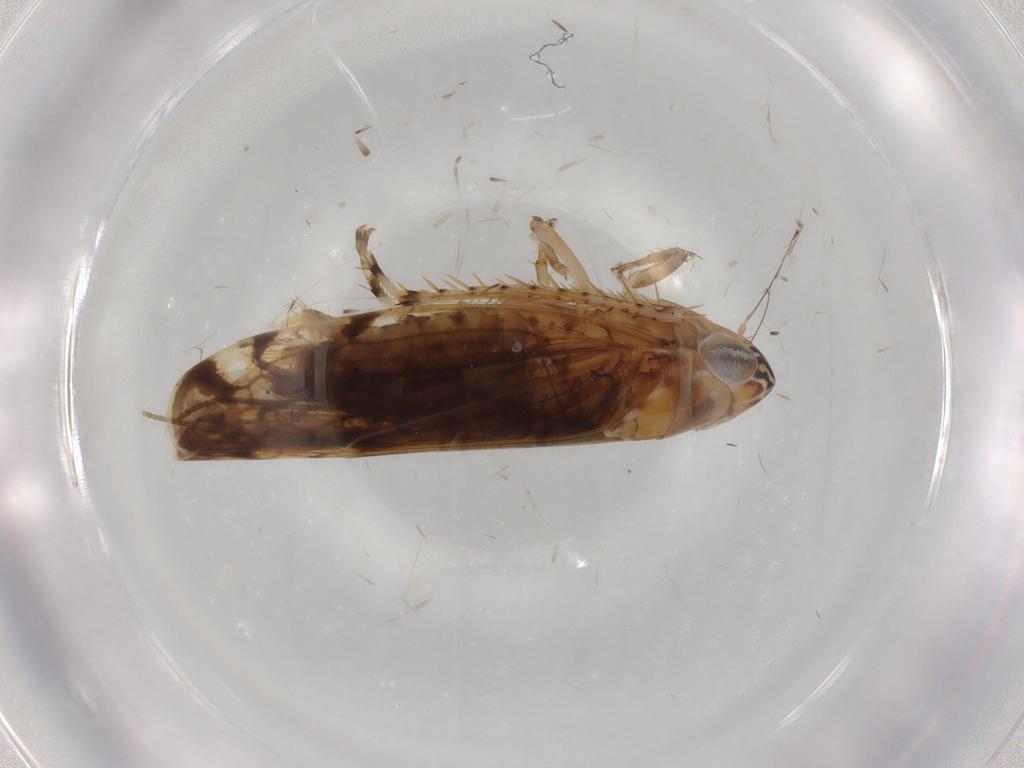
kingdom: Animalia
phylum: Arthropoda
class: Insecta
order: Hemiptera
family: Cicadellidae
